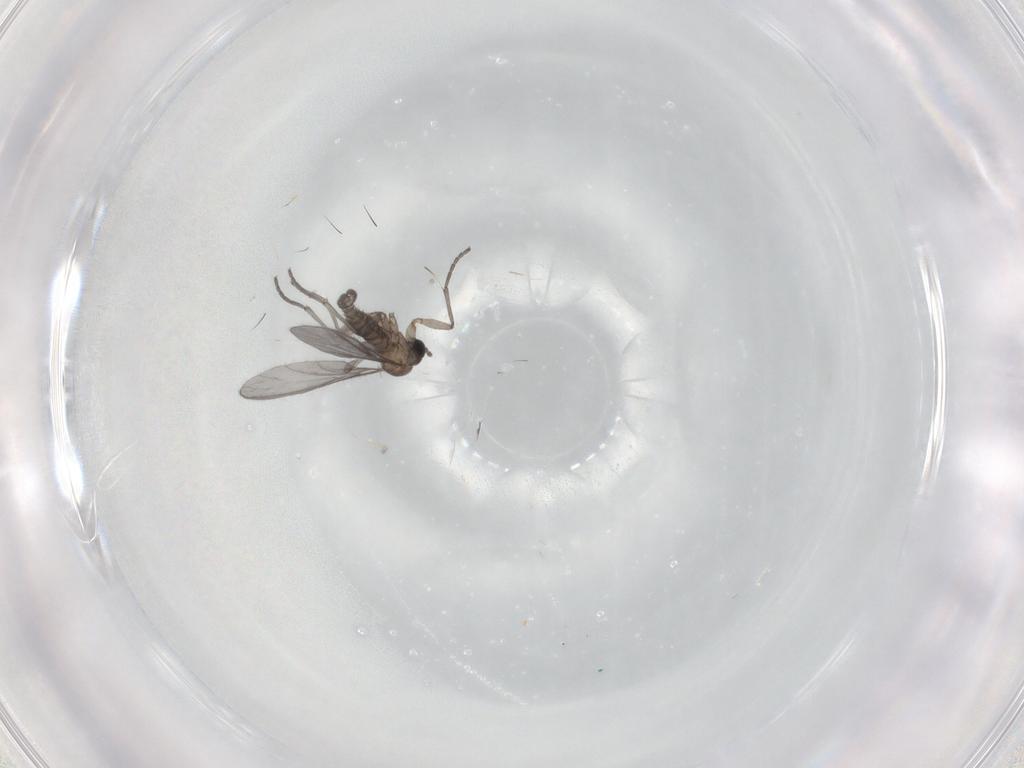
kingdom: Animalia
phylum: Arthropoda
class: Insecta
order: Diptera
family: Sciaridae
